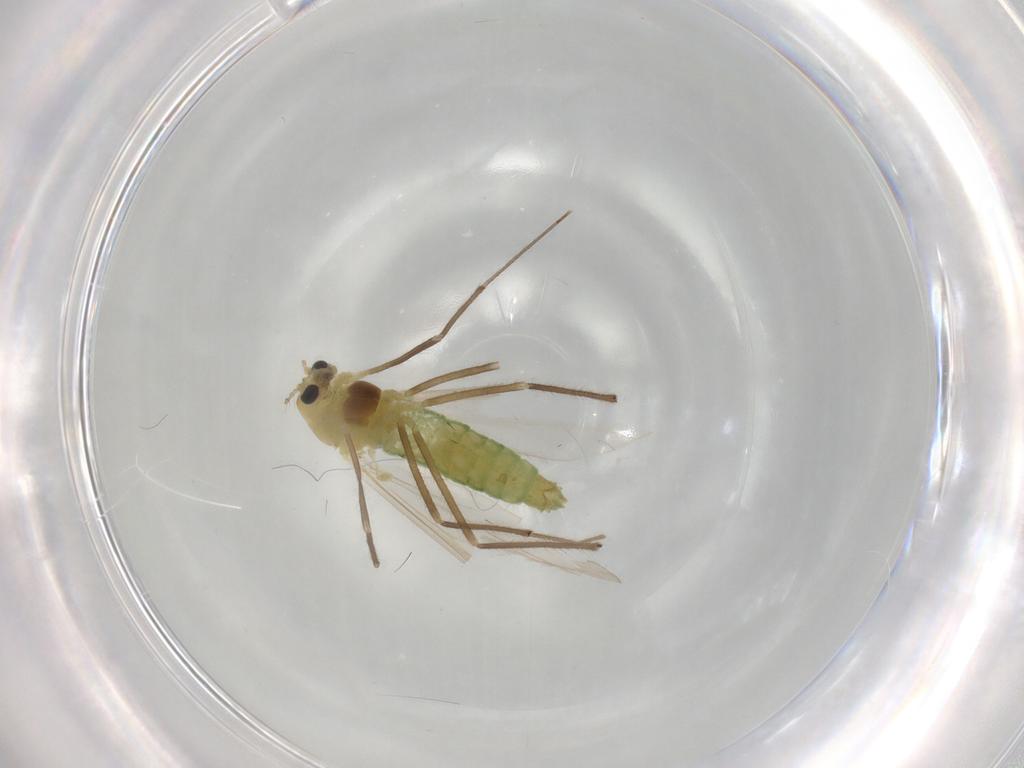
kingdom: Animalia
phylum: Arthropoda
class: Insecta
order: Diptera
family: Chironomidae
